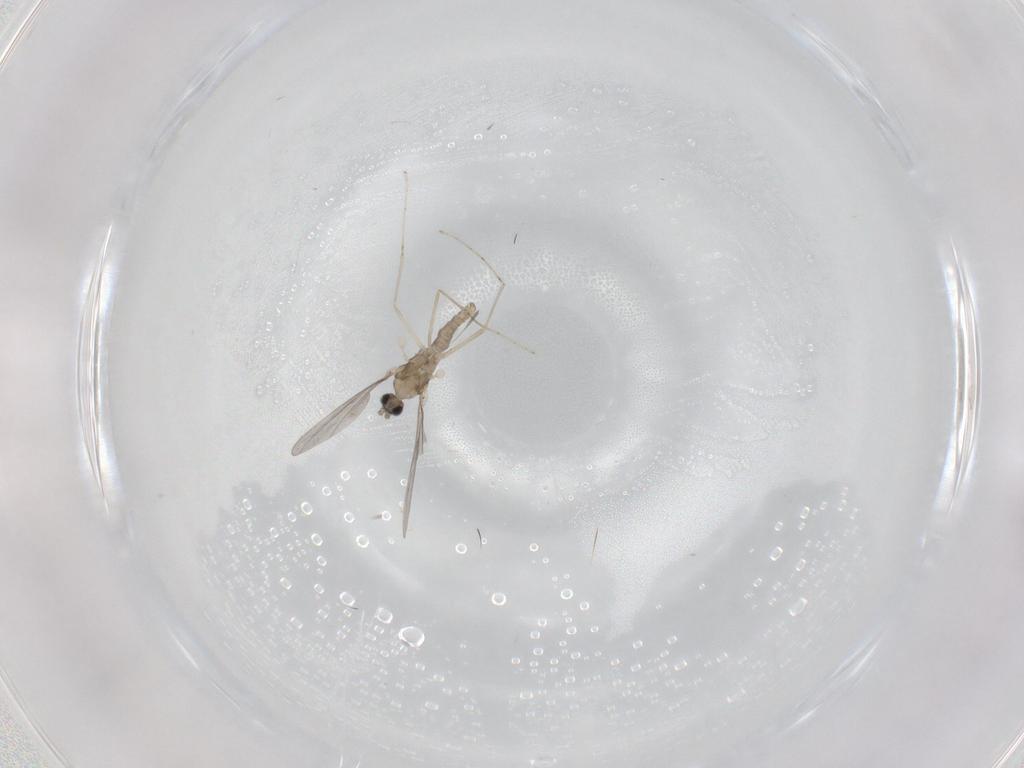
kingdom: Animalia
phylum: Arthropoda
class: Insecta
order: Diptera
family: Cecidomyiidae
